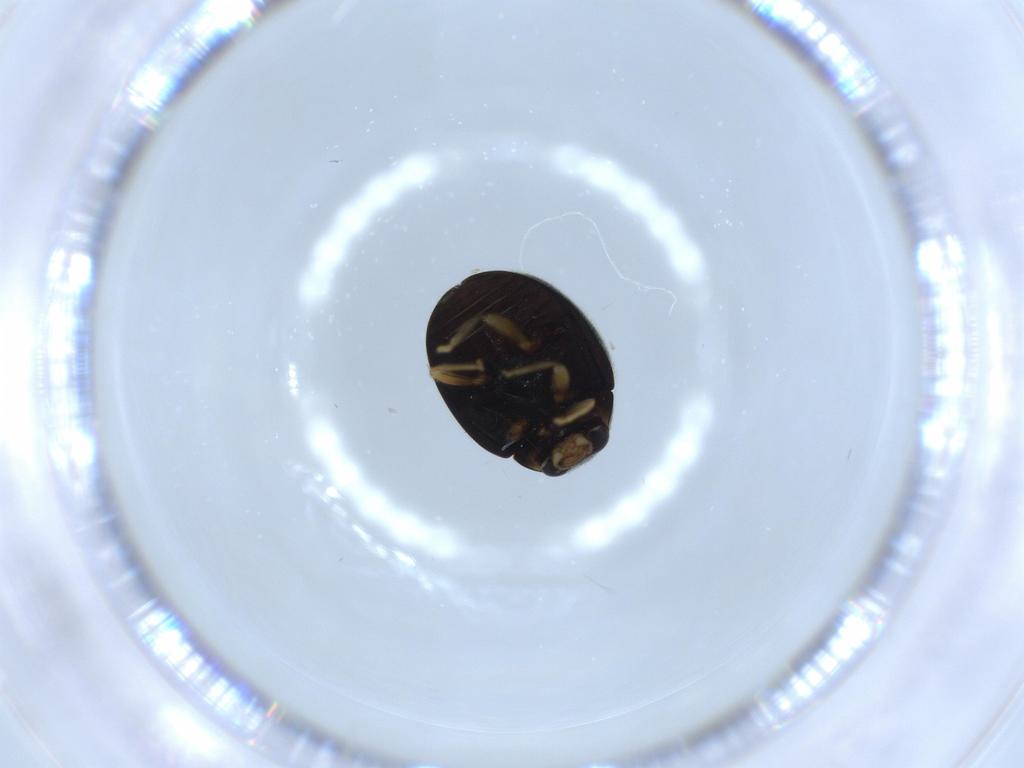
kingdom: Animalia
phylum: Arthropoda
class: Insecta
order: Coleoptera
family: Coccinellidae
